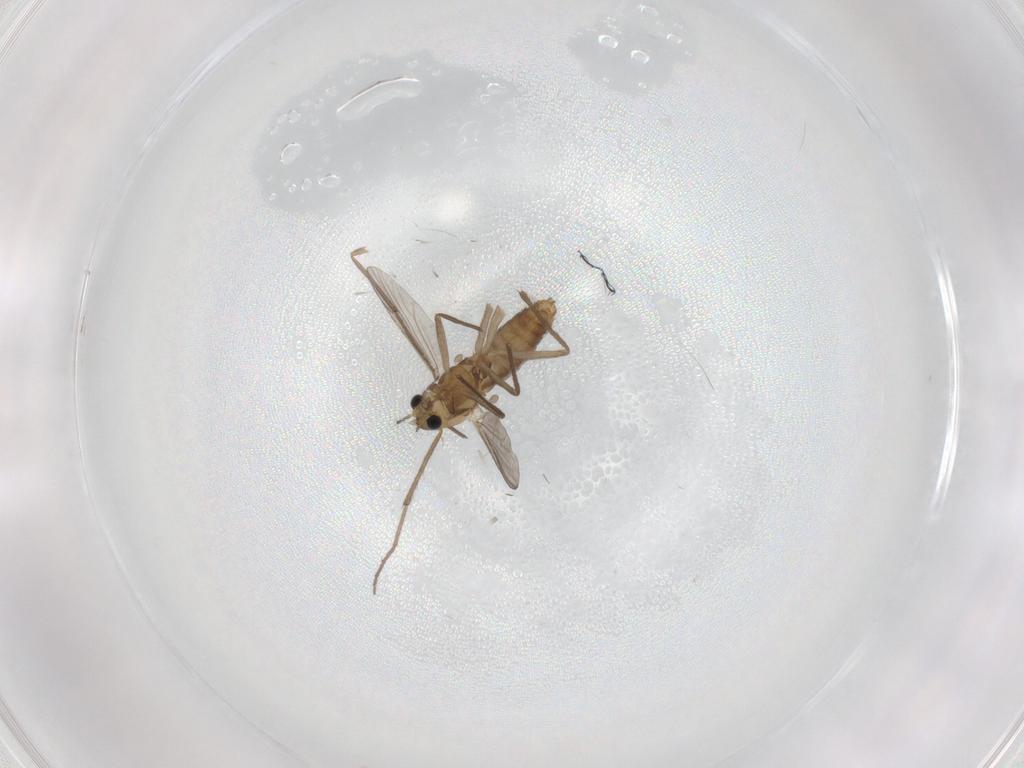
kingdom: Animalia
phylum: Arthropoda
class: Insecta
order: Diptera
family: Chironomidae
